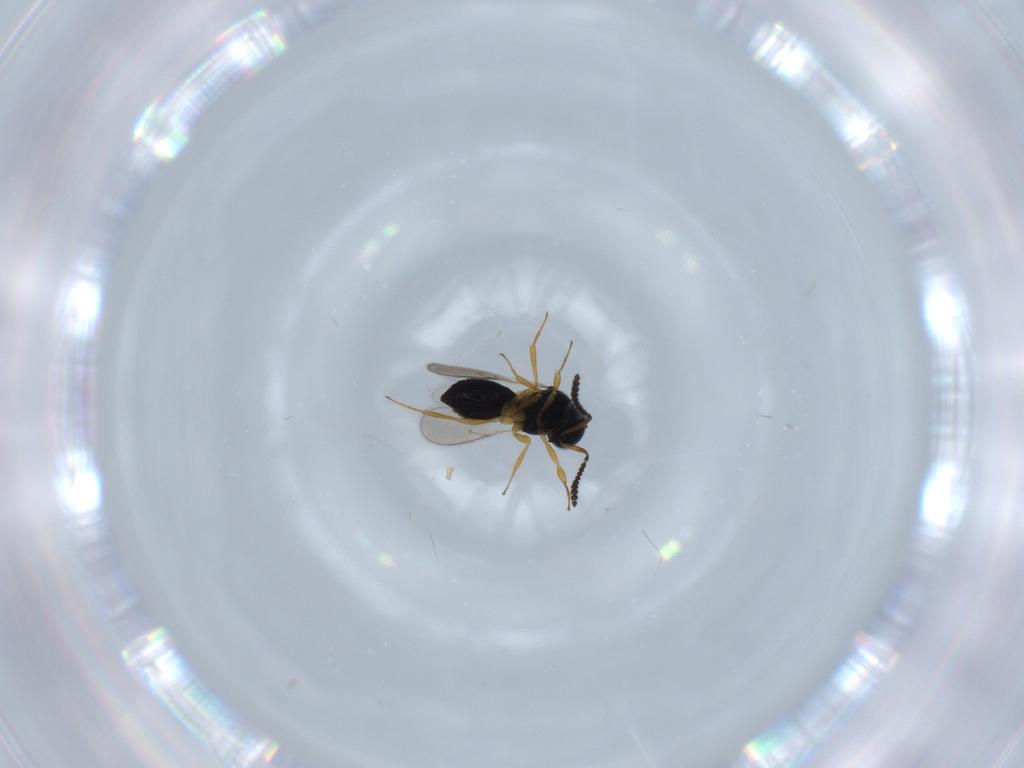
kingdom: Animalia
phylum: Arthropoda
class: Insecta
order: Hymenoptera
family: Scelionidae
